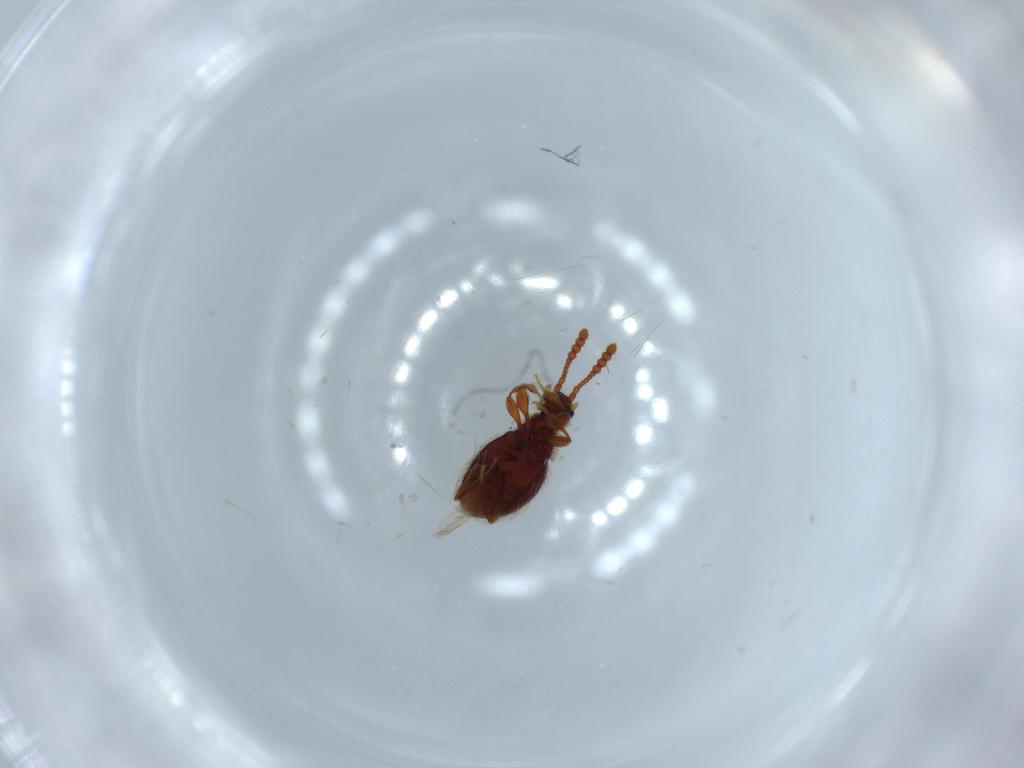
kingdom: Animalia
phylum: Arthropoda
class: Insecta
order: Coleoptera
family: Staphylinidae
